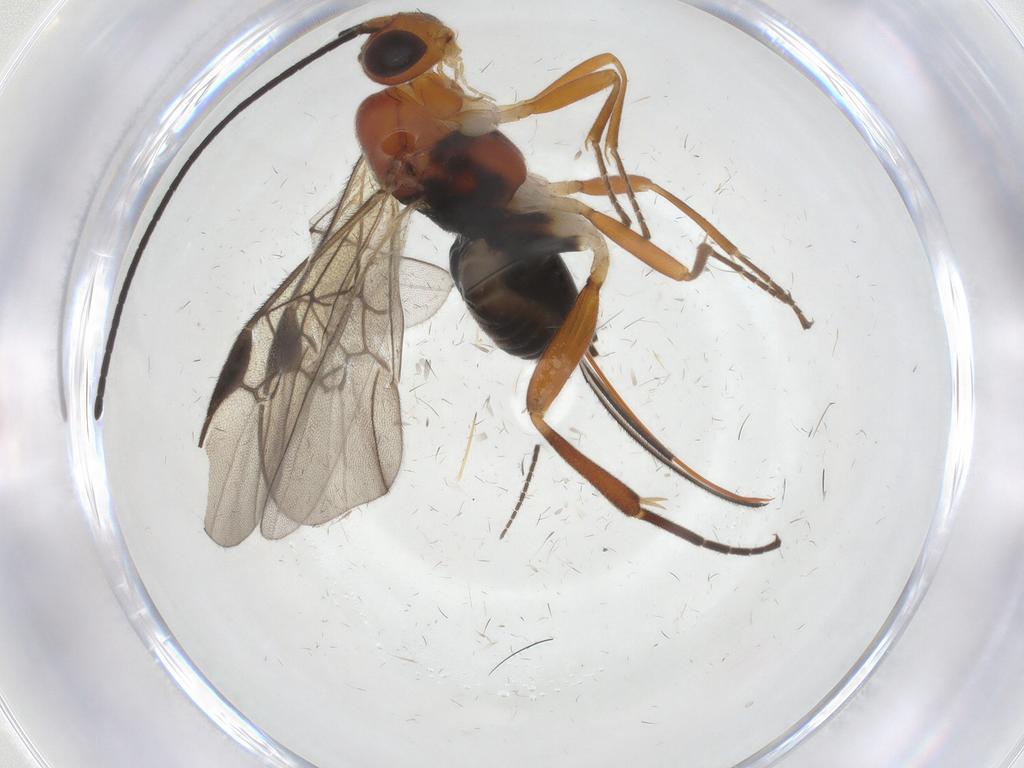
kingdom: Animalia
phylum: Arthropoda
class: Insecta
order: Lepidoptera
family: Tortricidae
